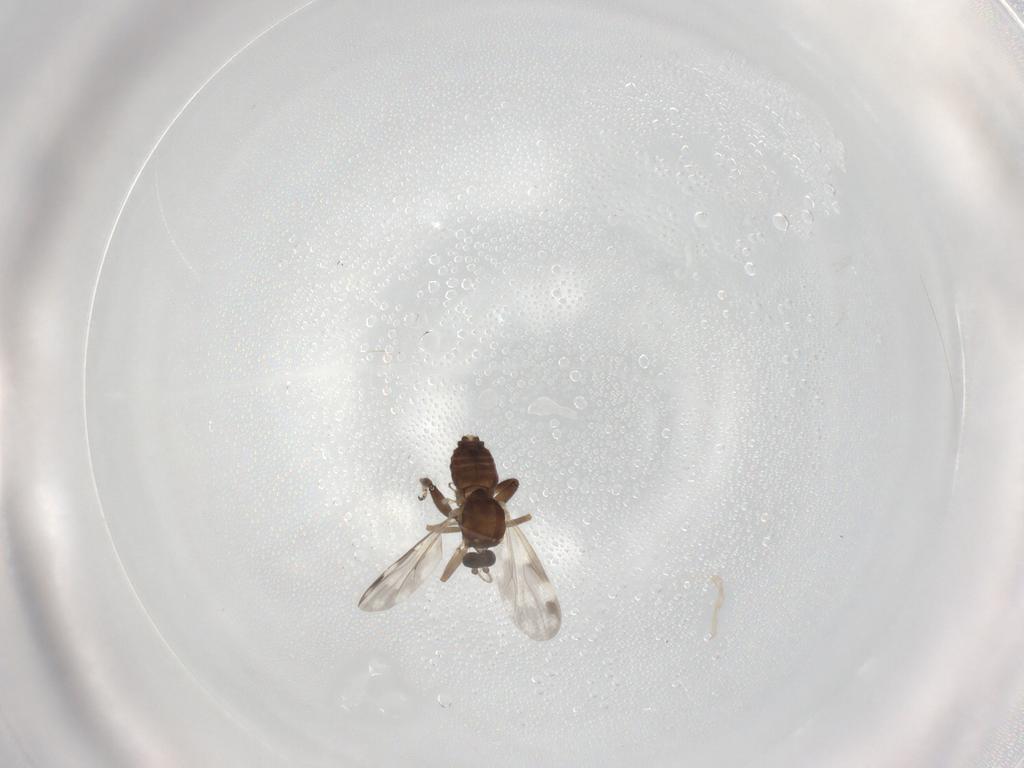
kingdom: Animalia
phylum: Arthropoda
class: Insecta
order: Diptera
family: Ceratopogonidae
